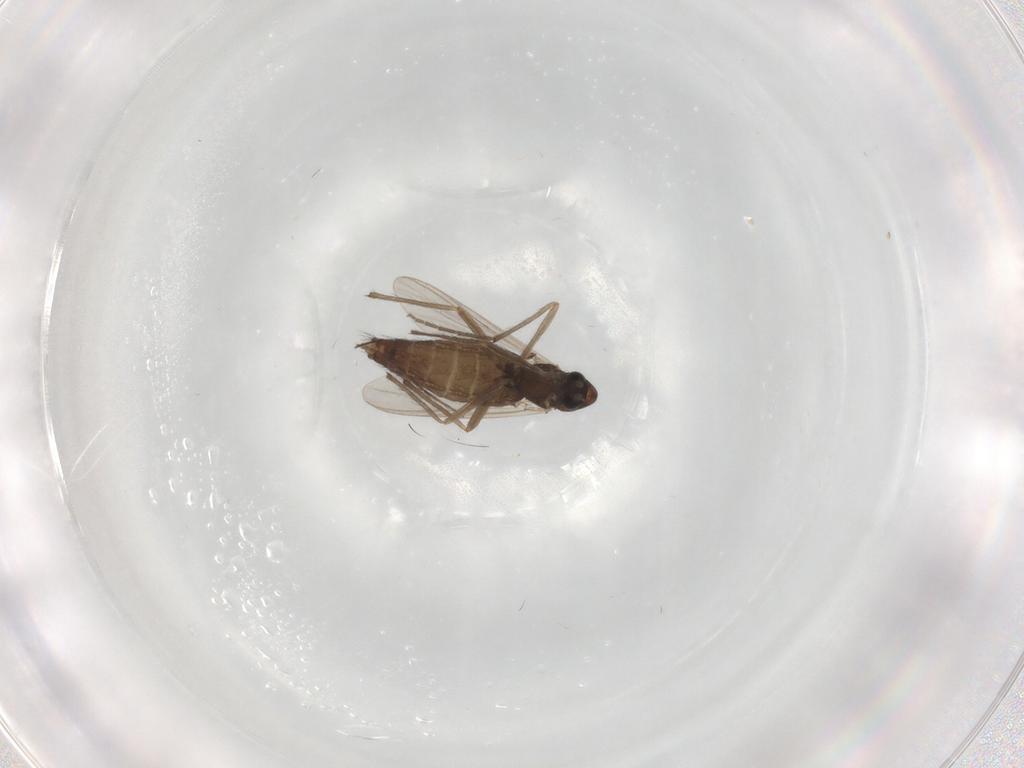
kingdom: Animalia
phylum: Arthropoda
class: Insecta
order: Diptera
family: Chironomidae
